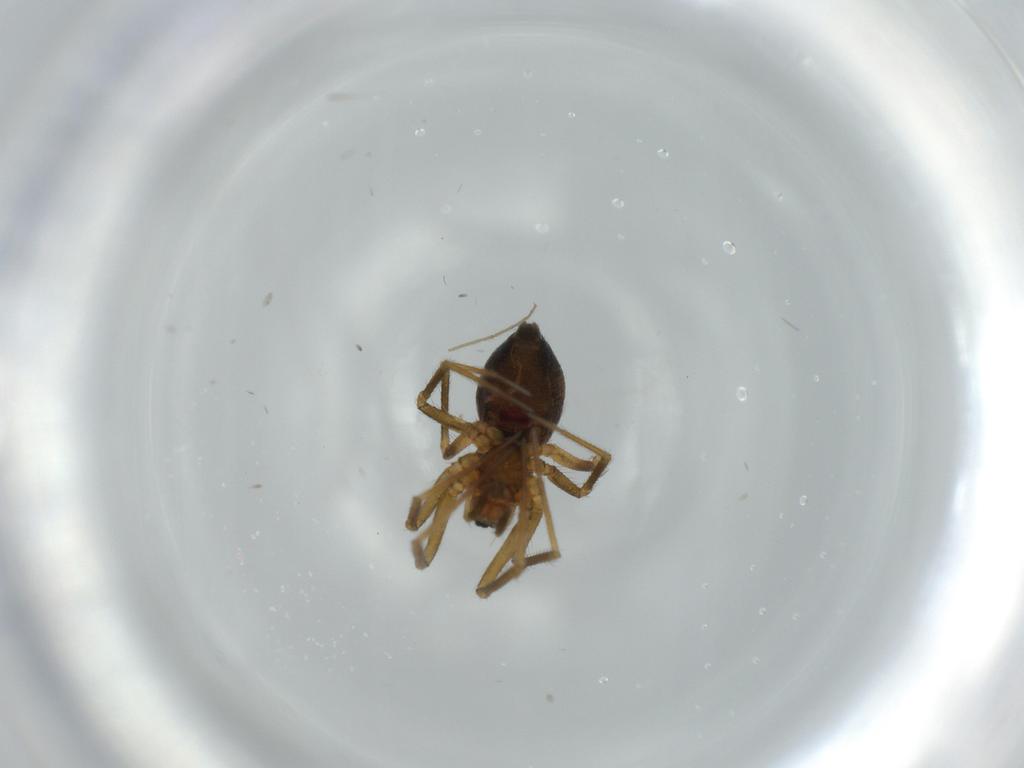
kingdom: Animalia
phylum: Arthropoda
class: Arachnida
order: Araneae
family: Linyphiidae
